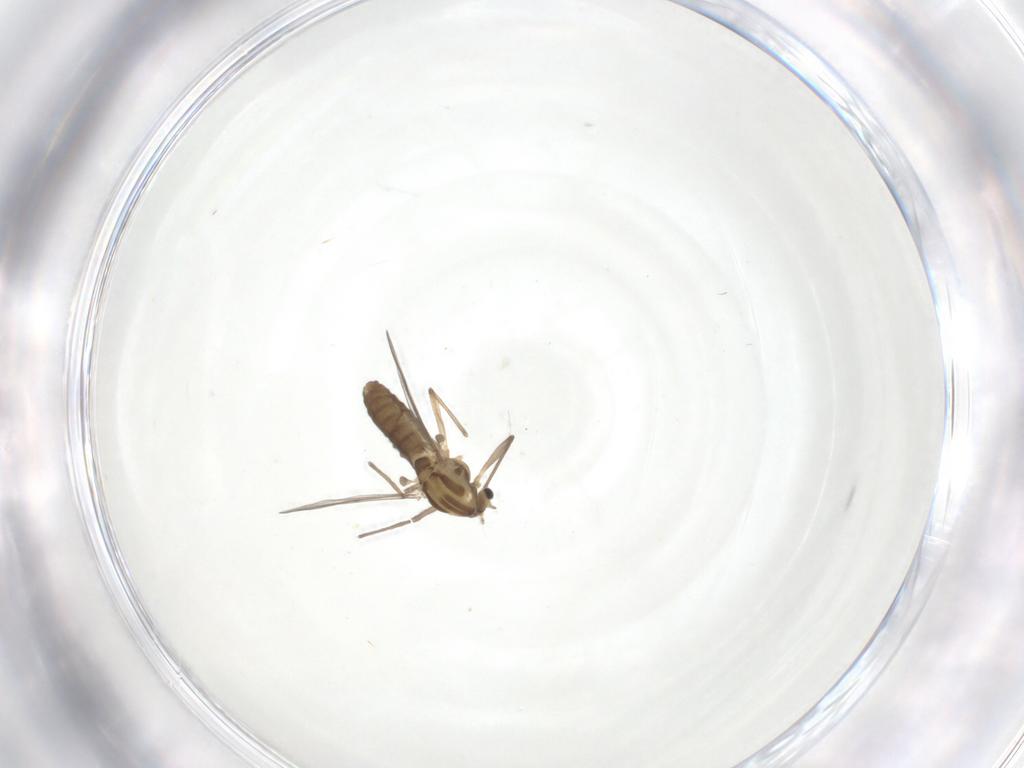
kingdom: Animalia
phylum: Arthropoda
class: Insecta
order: Diptera
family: Chironomidae
